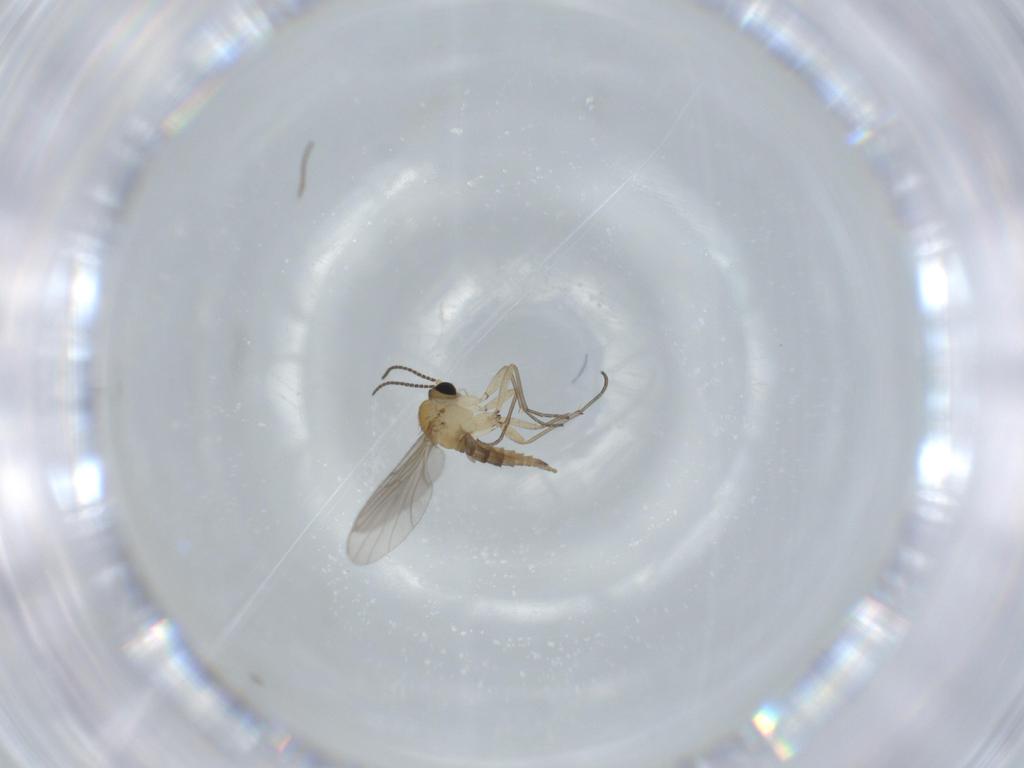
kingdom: Animalia
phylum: Arthropoda
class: Insecta
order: Diptera
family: Sciaridae
